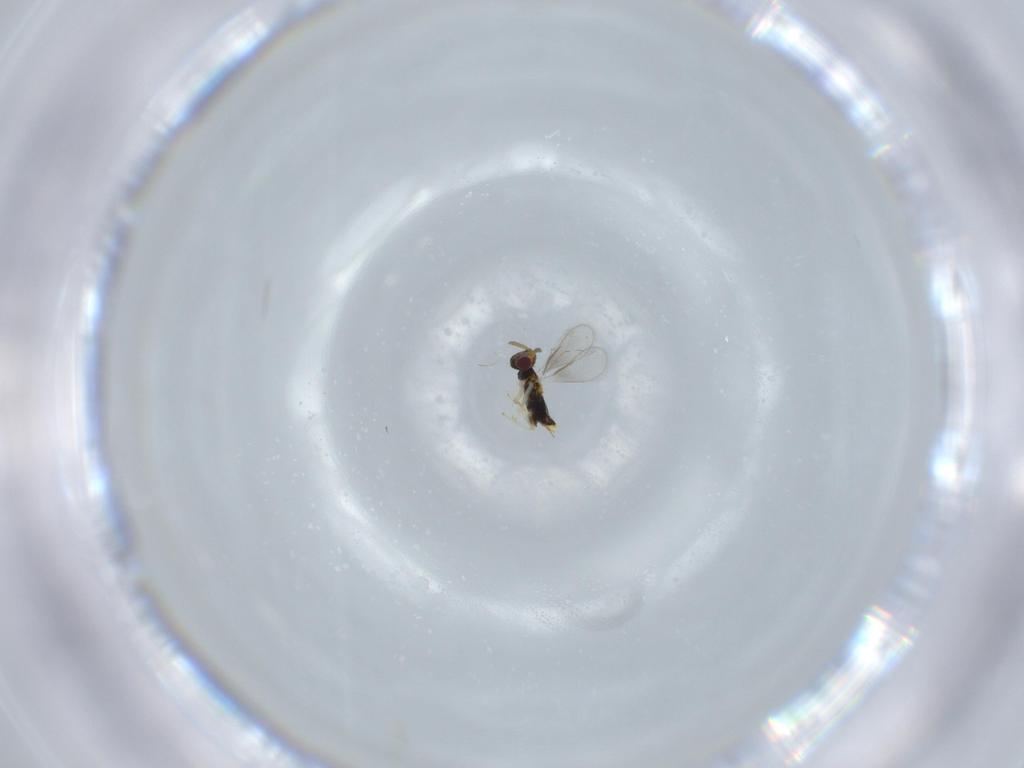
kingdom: Animalia
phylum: Arthropoda
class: Insecta
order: Hymenoptera
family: Aphelinidae
